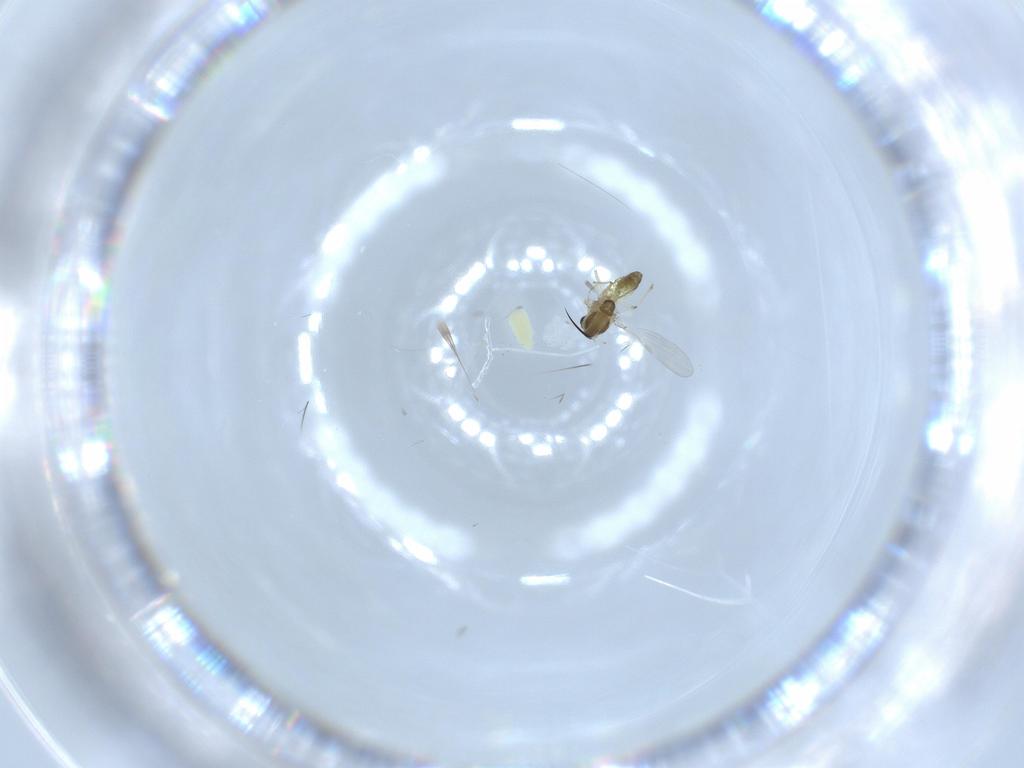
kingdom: Animalia
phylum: Arthropoda
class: Insecta
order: Diptera
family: Chironomidae
